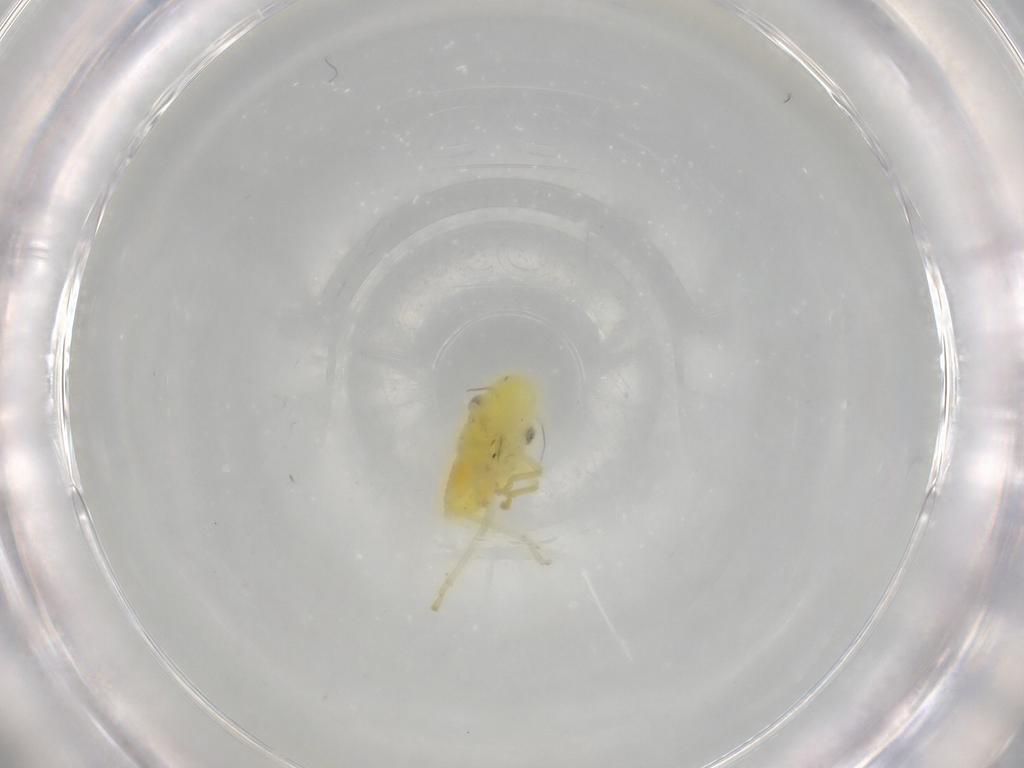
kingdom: Animalia
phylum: Arthropoda
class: Insecta
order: Hemiptera
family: Cicadellidae
